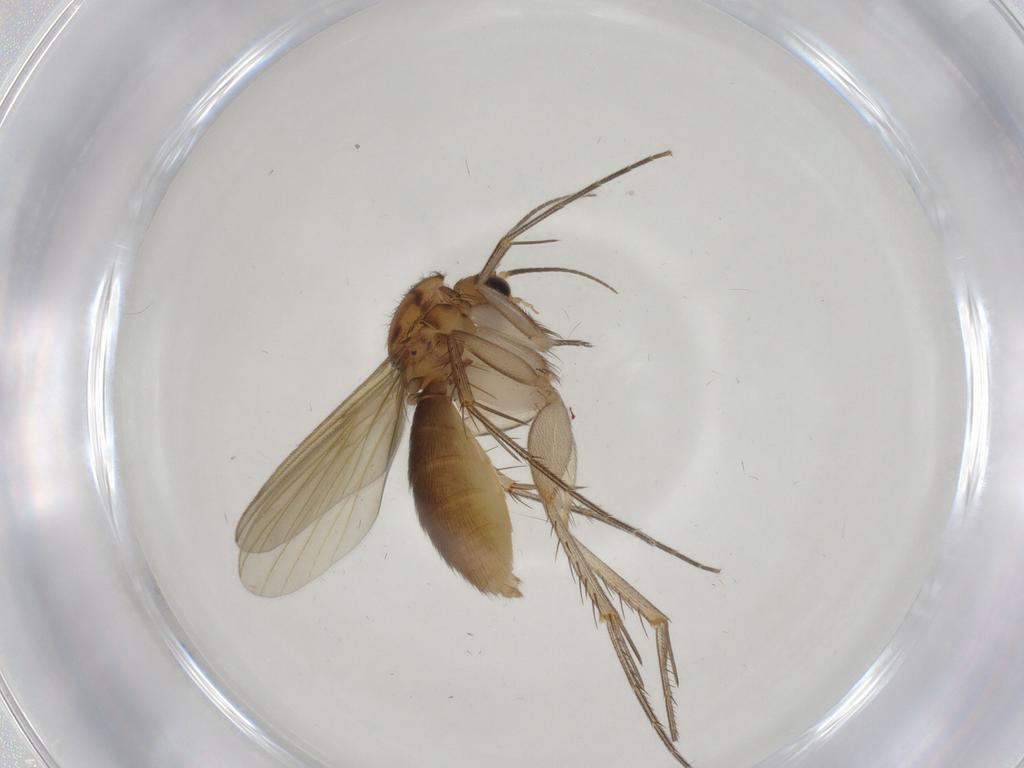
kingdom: Animalia
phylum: Arthropoda
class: Insecta
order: Diptera
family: Mycetophilidae
